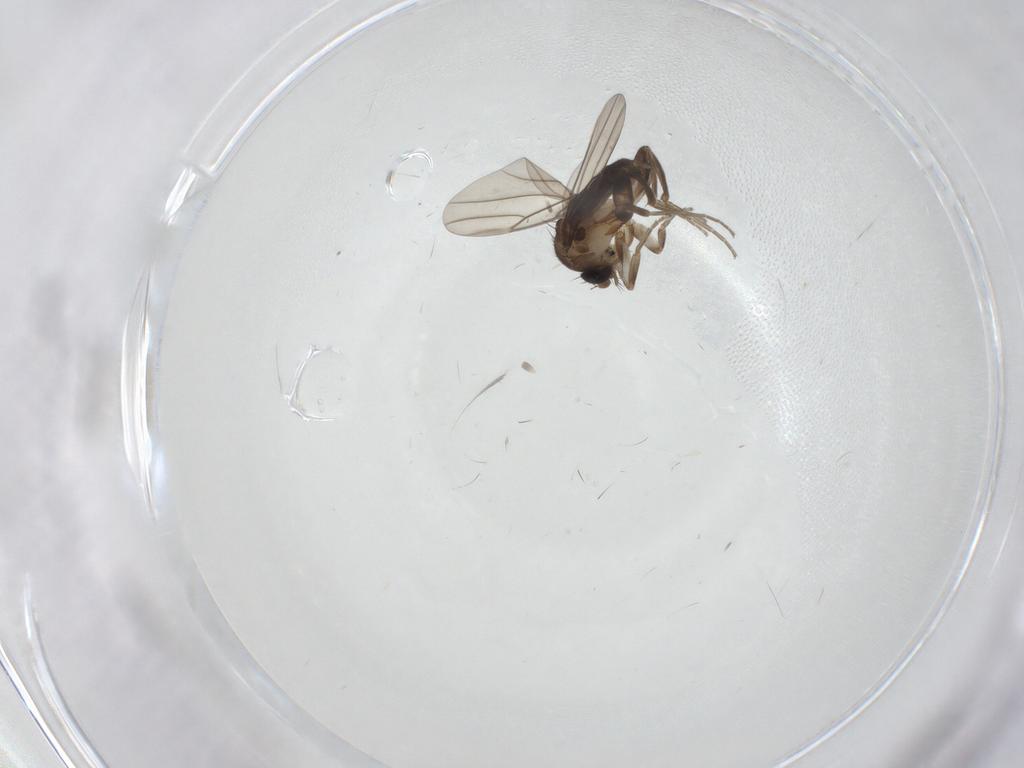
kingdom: Animalia
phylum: Arthropoda
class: Insecta
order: Diptera
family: Phoridae
